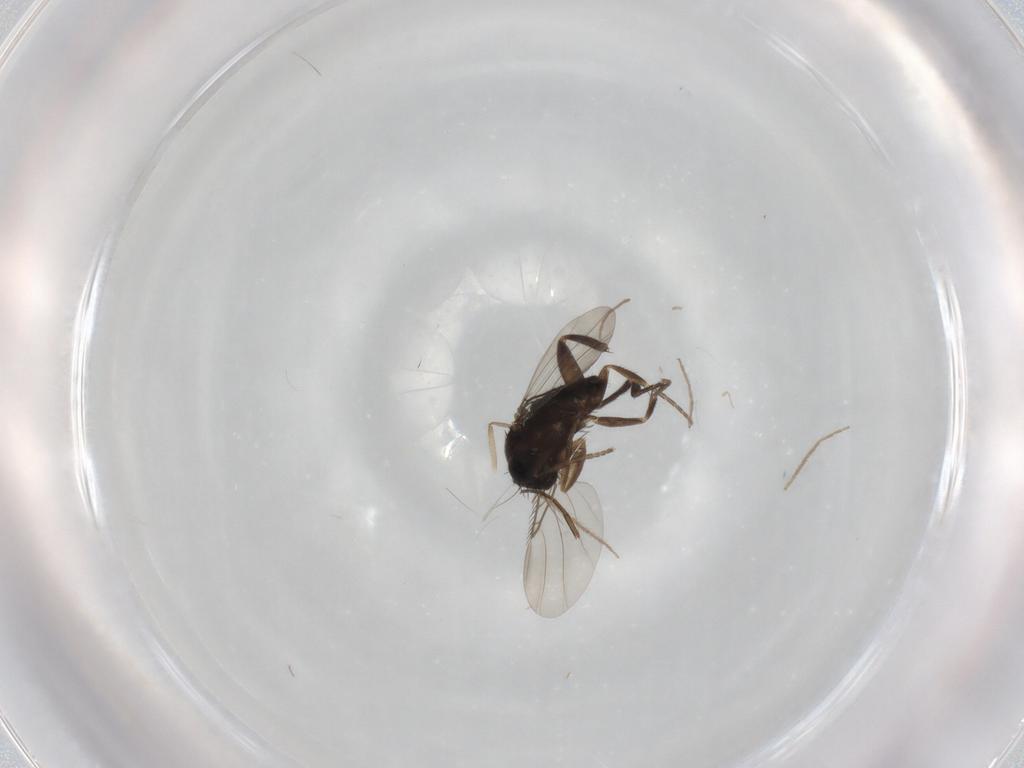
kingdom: Animalia
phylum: Arthropoda
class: Insecta
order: Diptera
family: Phoridae
